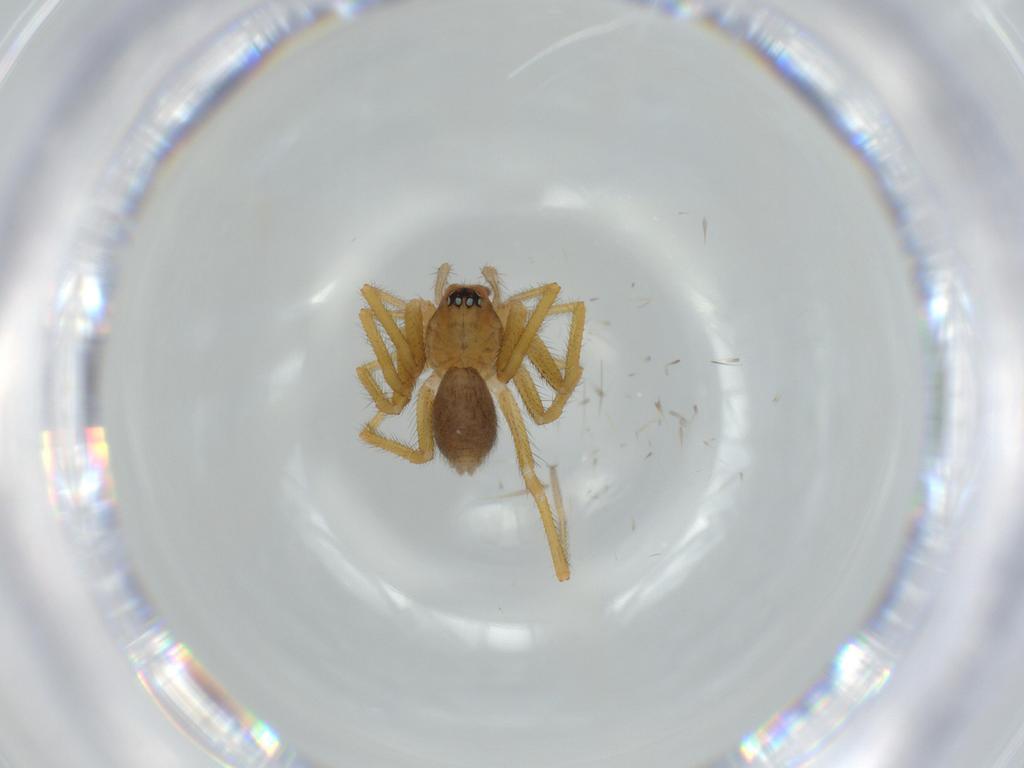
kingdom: Animalia
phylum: Arthropoda
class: Arachnida
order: Araneae
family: Linyphiidae
